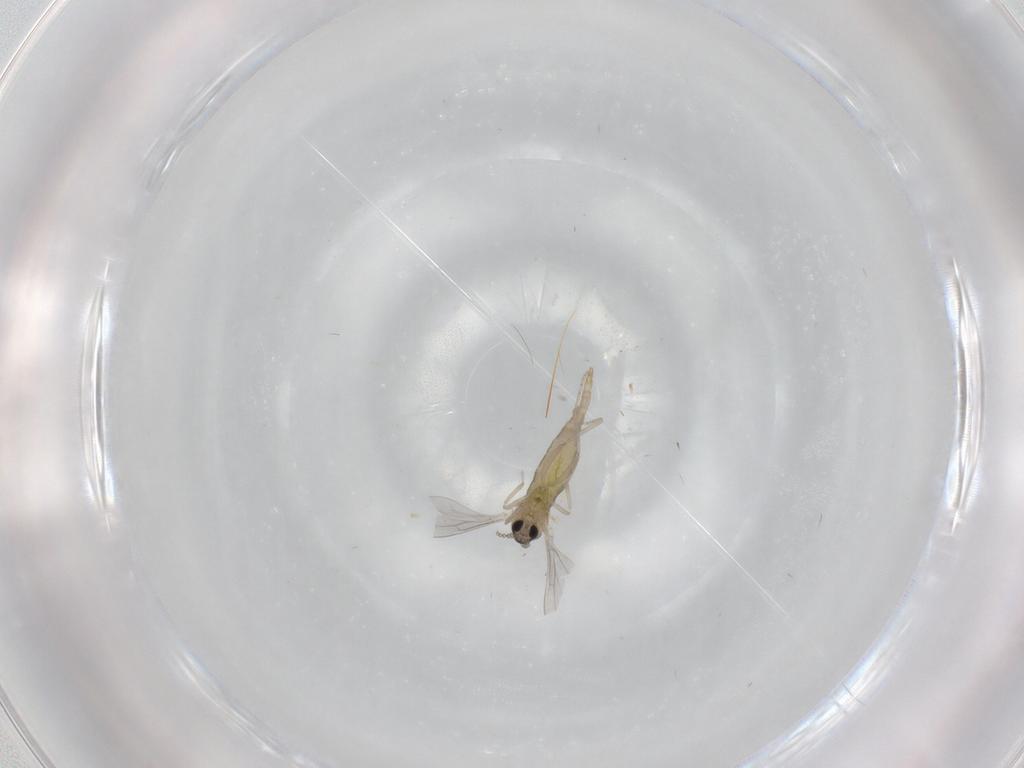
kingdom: Animalia
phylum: Arthropoda
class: Insecta
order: Diptera
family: Cecidomyiidae
